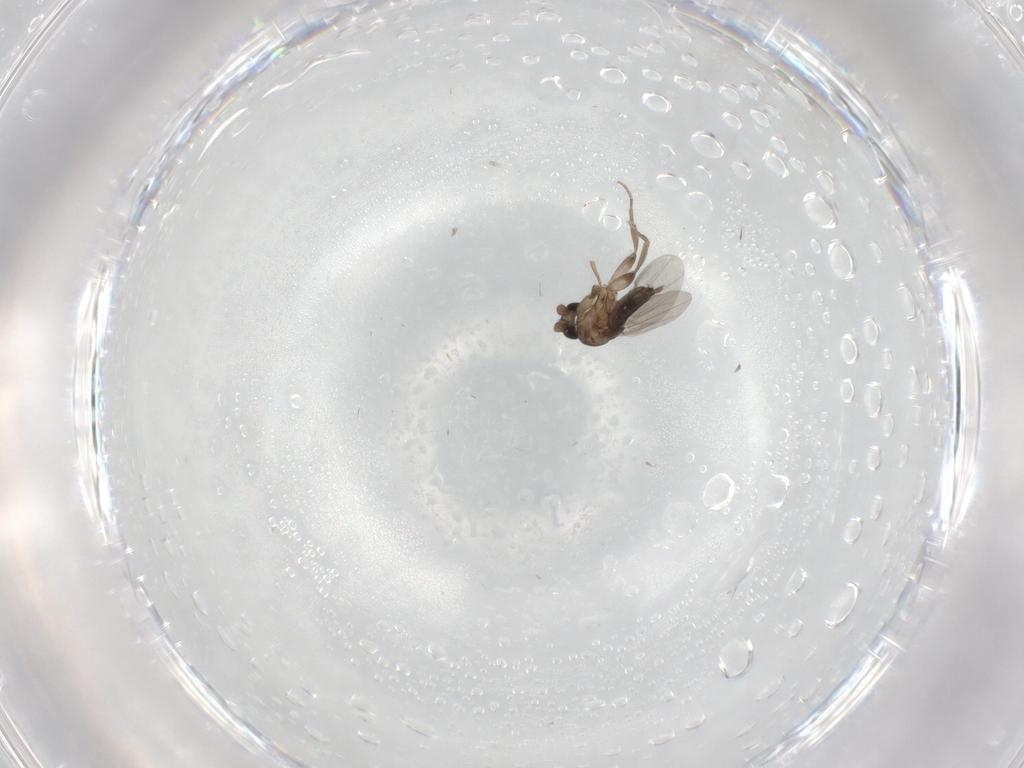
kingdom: Animalia
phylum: Arthropoda
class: Insecta
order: Diptera
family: Phoridae
